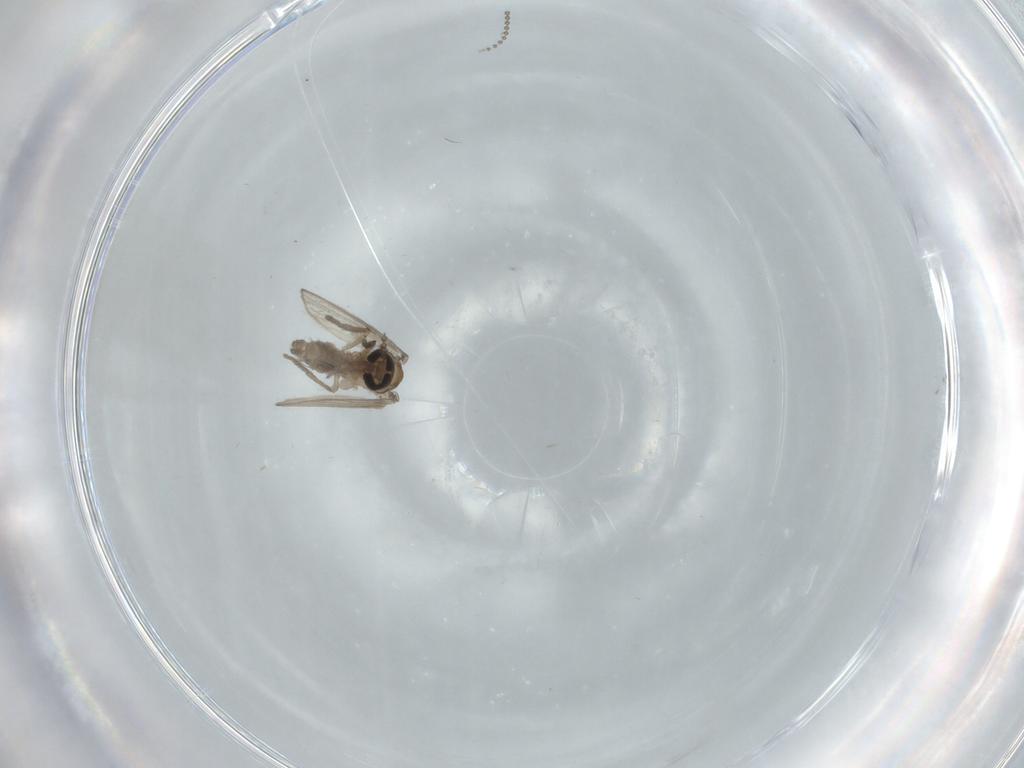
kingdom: Animalia
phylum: Arthropoda
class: Insecta
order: Diptera
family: Psychodidae
